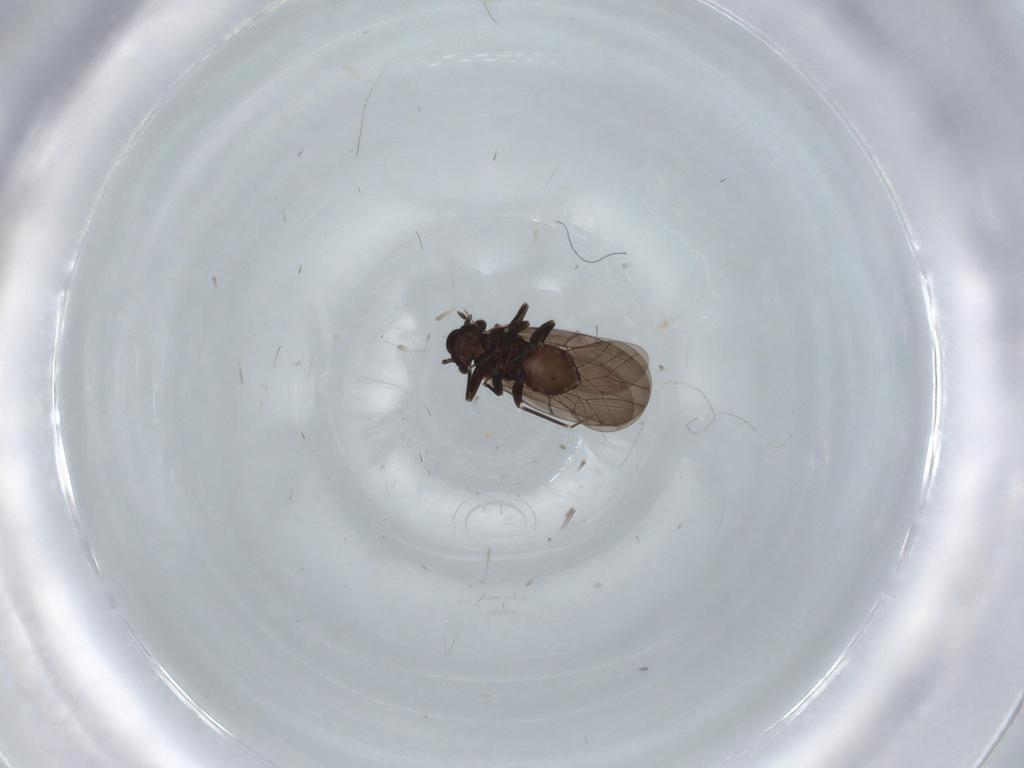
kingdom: Animalia
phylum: Arthropoda
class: Insecta
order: Psocodea
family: Lepidopsocidae
